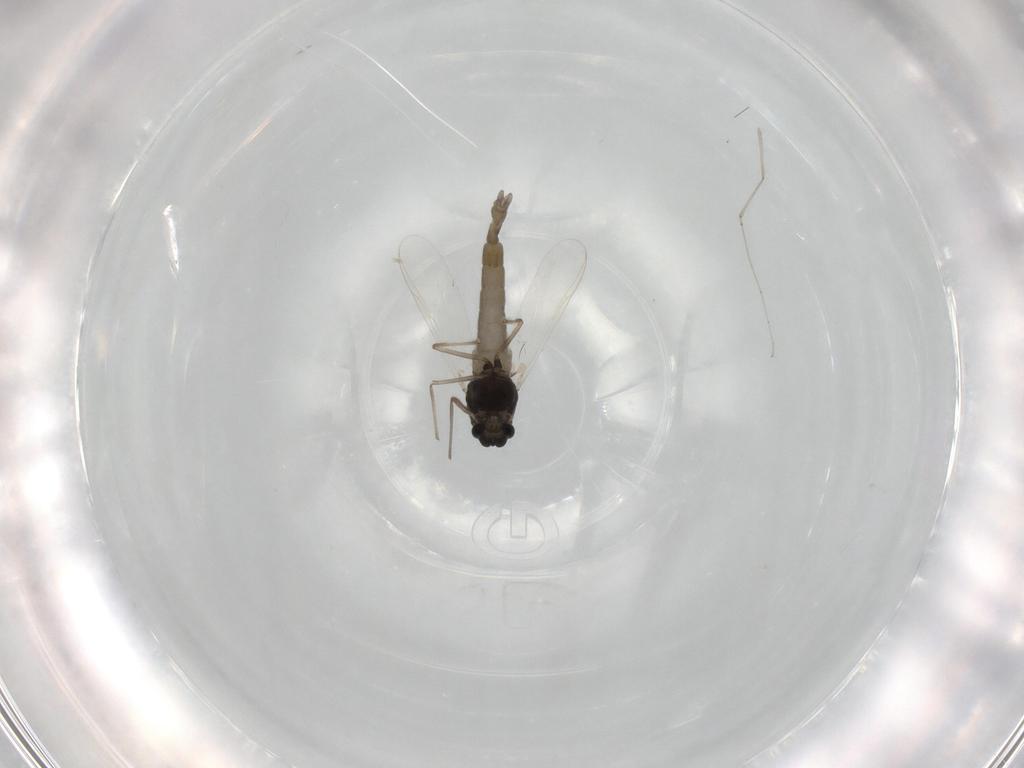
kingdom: Animalia
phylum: Arthropoda
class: Insecta
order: Diptera
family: Chironomidae
